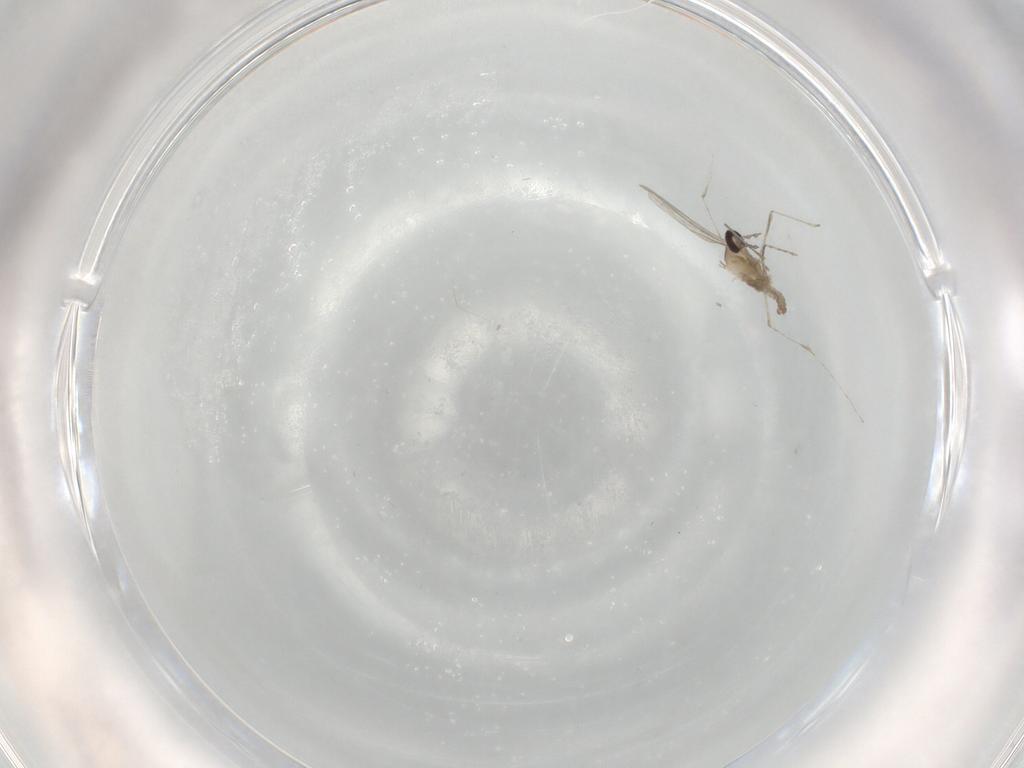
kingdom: Animalia
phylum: Arthropoda
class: Insecta
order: Diptera
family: Cecidomyiidae
